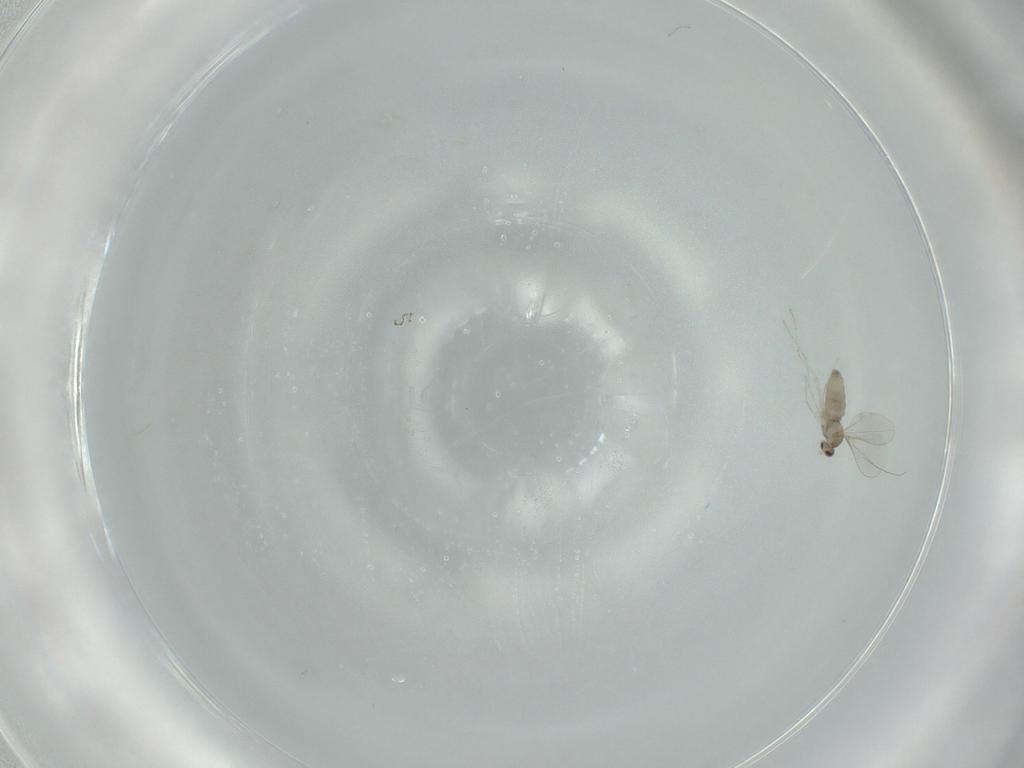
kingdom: Animalia
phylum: Arthropoda
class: Insecta
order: Diptera
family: Cecidomyiidae
